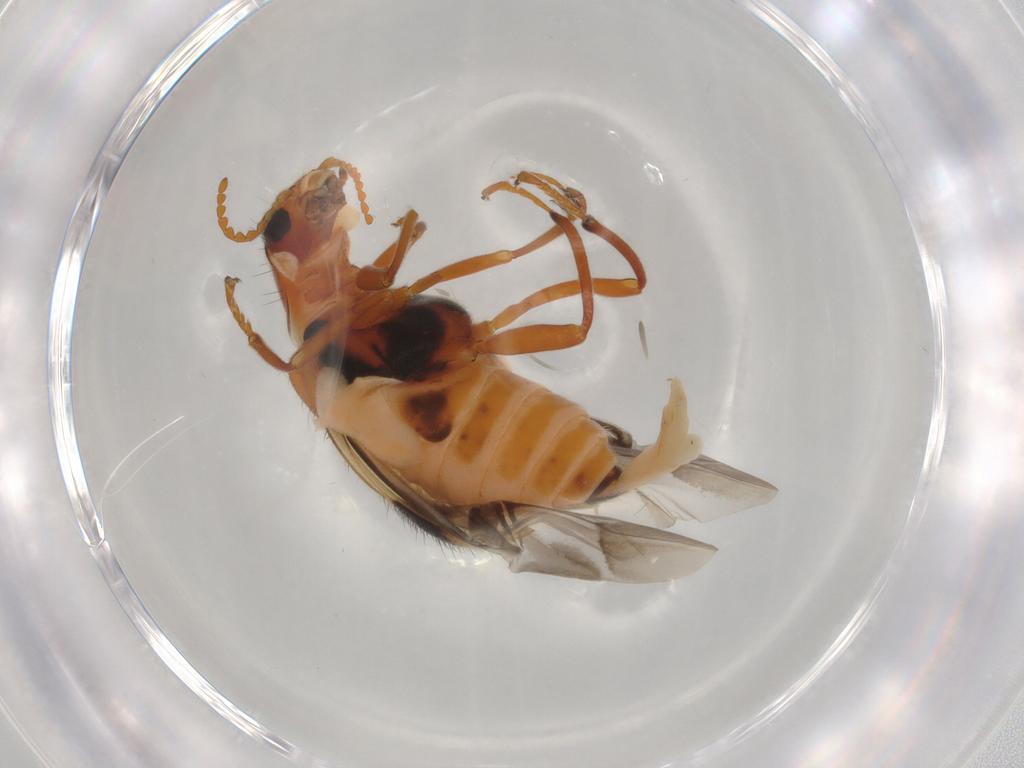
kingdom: Animalia
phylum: Arthropoda
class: Insecta
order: Coleoptera
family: Melyridae
